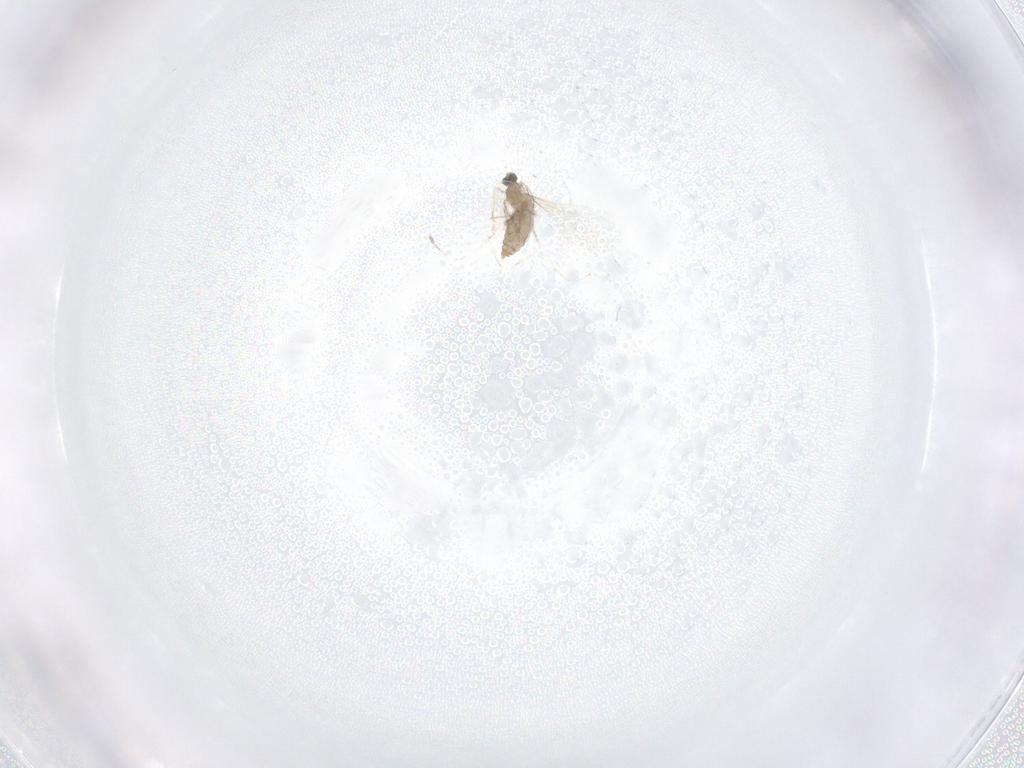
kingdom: Animalia
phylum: Arthropoda
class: Insecta
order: Diptera
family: Cecidomyiidae
